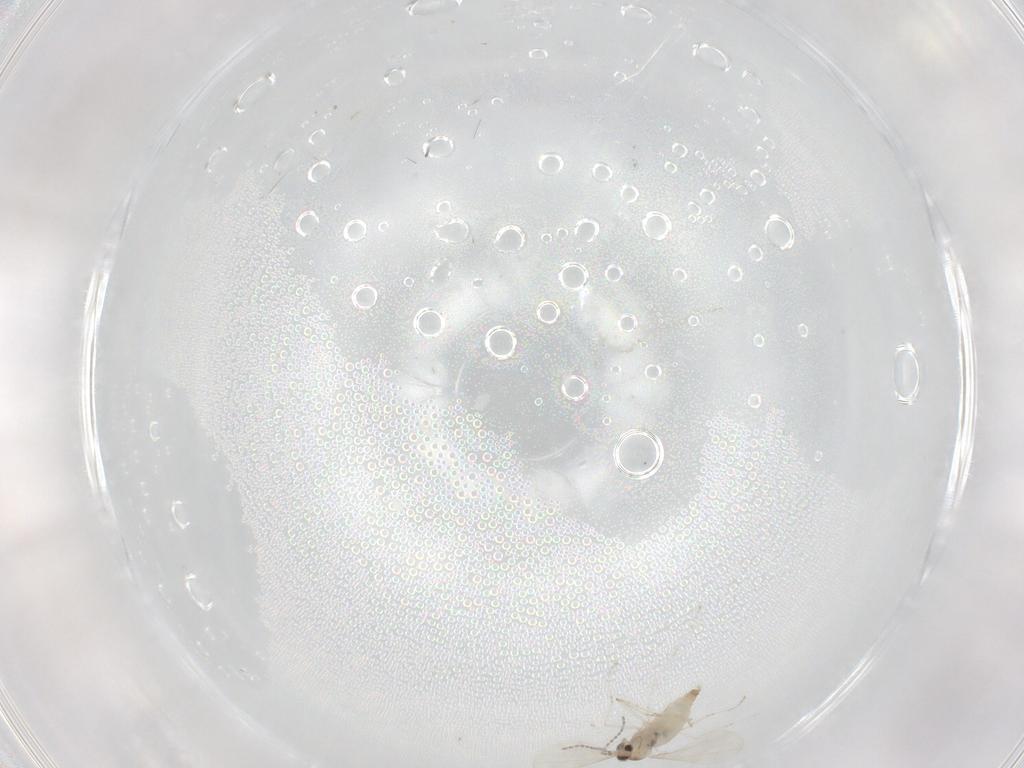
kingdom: Animalia
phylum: Arthropoda
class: Insecta
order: Diptera
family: Cecidomyiidae
